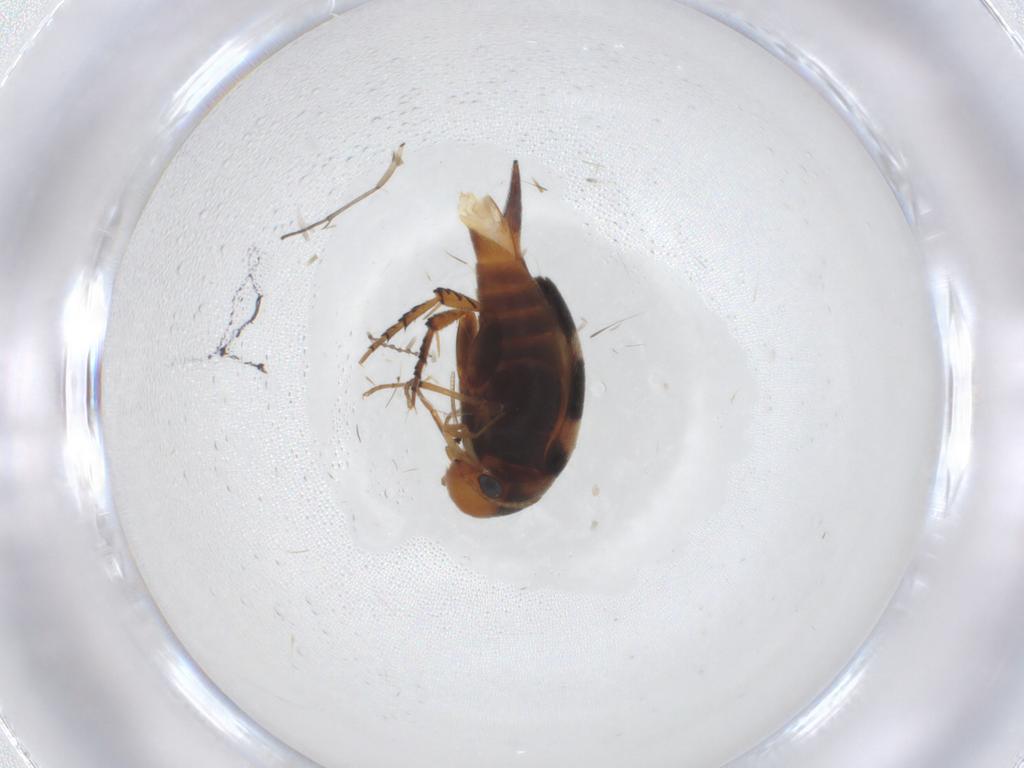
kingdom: Animalia
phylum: Arthropoda
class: Insecta
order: Coleoptera
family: Mordellidae
